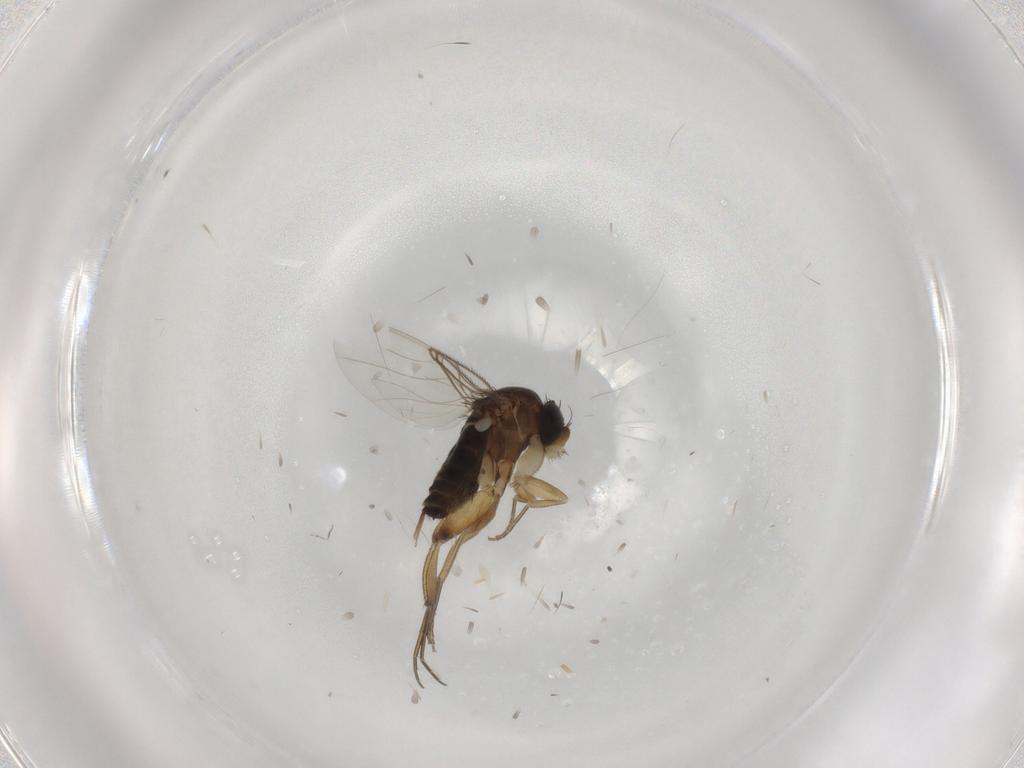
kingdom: Animalia
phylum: Arthropoda
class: Insecta
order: Diptera
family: Phoridae
